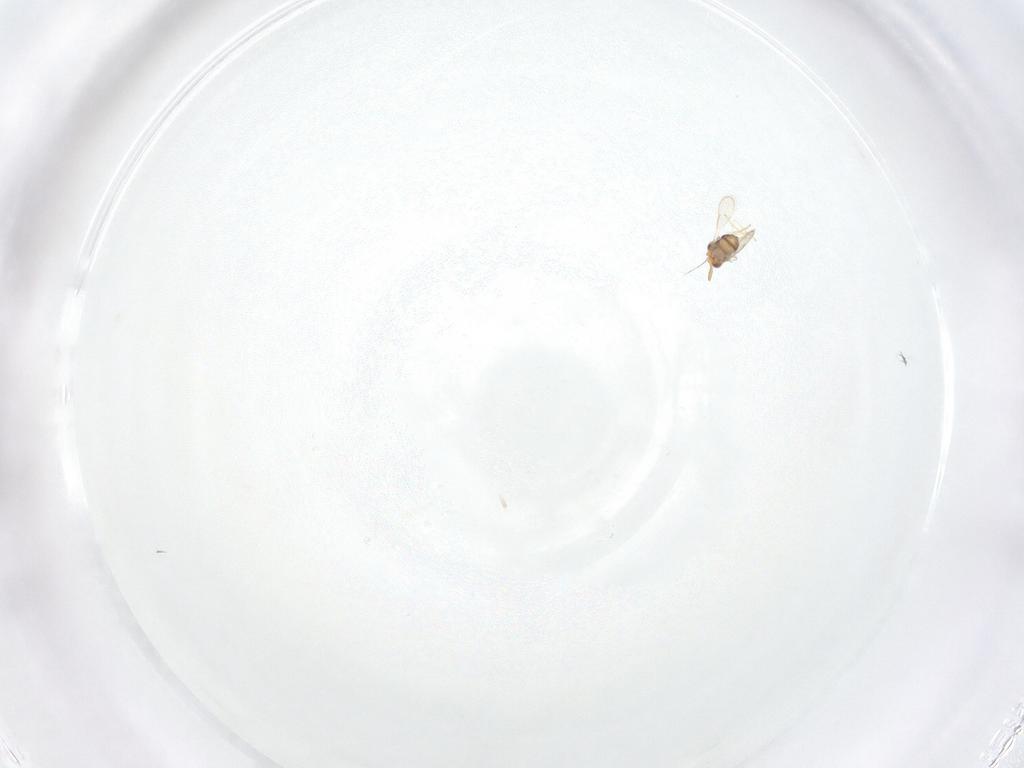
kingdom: Animalia
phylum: Arthropoda
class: Insecta
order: Hymenoptera
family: Aphelinidae
